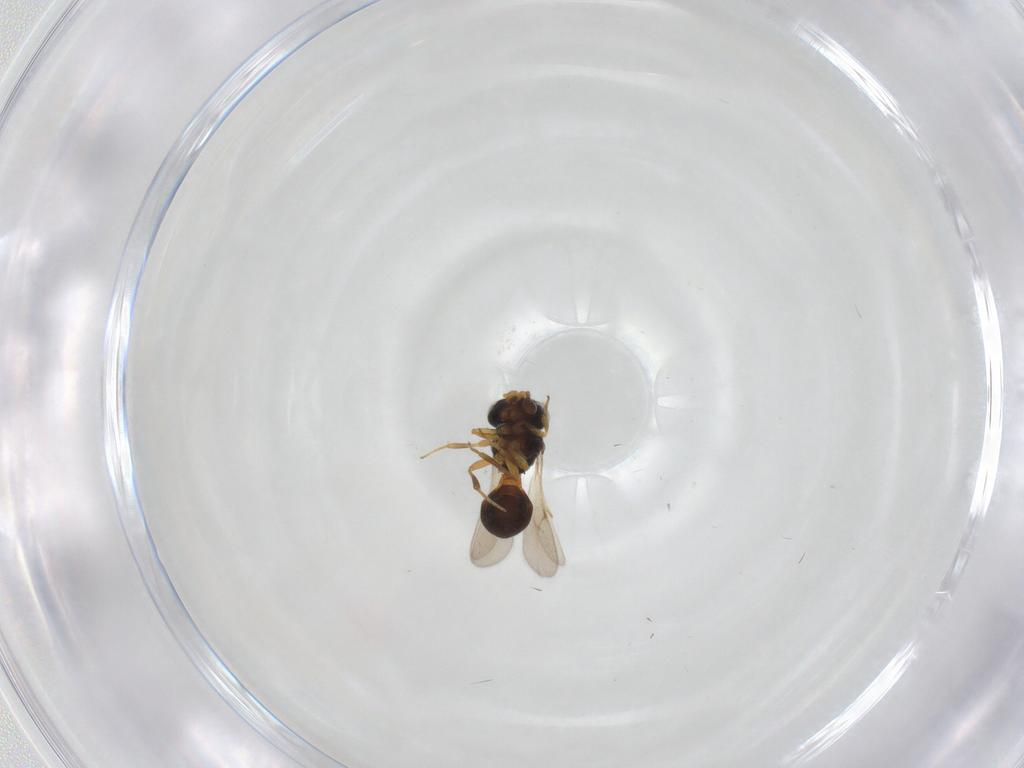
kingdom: Animalia
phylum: Arthropoda
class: Insecta
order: Hymenoptera
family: Scelionidae
